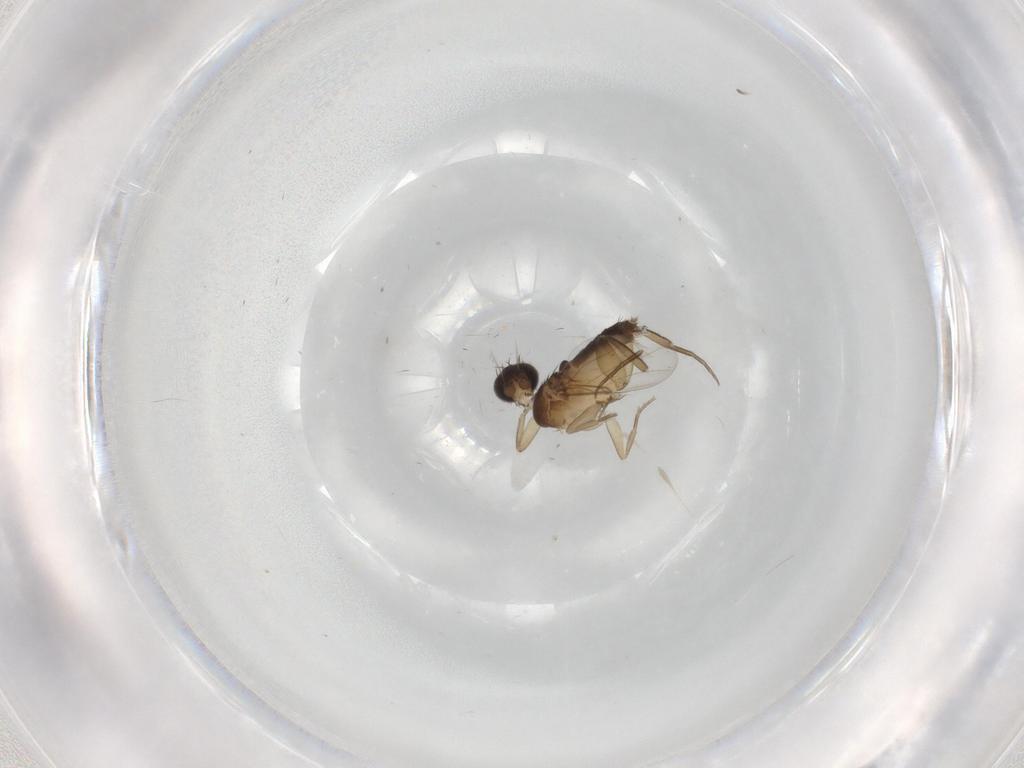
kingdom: Animalia
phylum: Arthropoda
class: Insecta
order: Diptera
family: Phoridae
